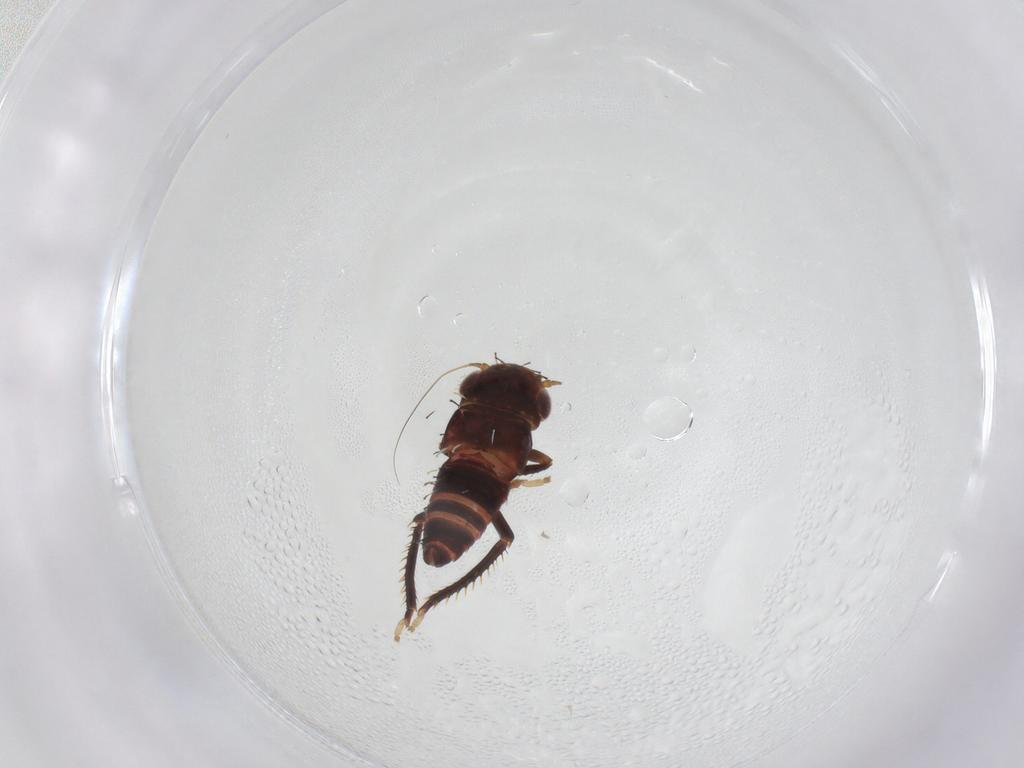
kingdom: Animalia
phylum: Arthropoda
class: Insecta
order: Hemiptera
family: Cicadellidae
